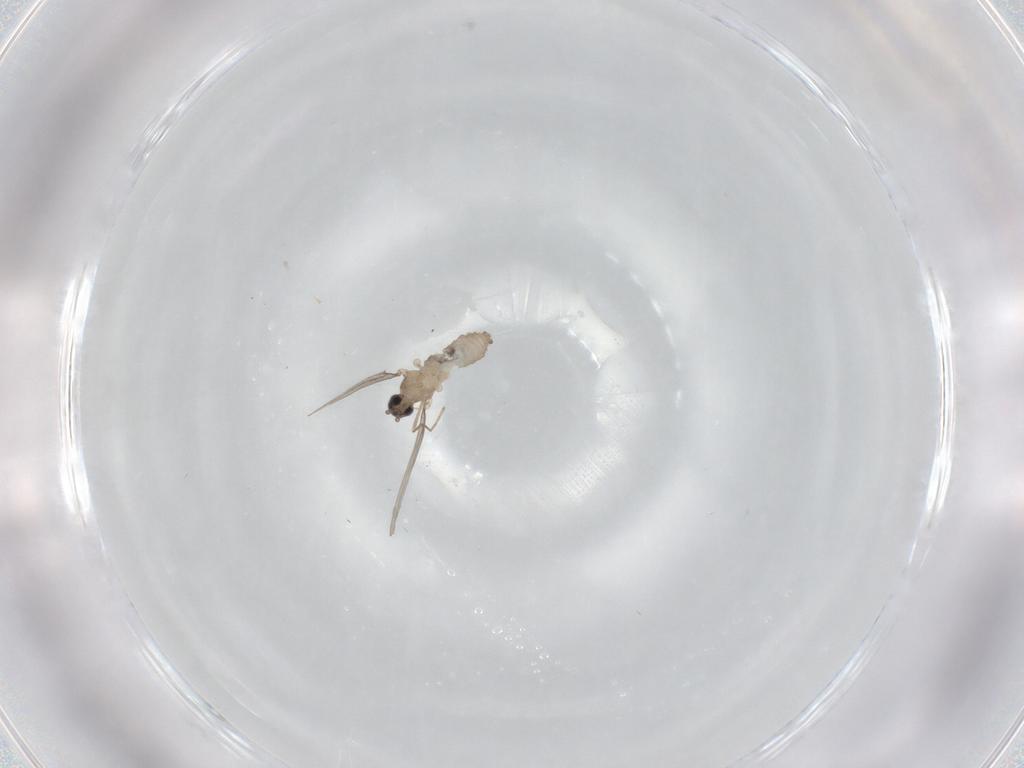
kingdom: Animalia
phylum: Arthropoda
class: Insecta
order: Diptera
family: Cecidomyiidae
